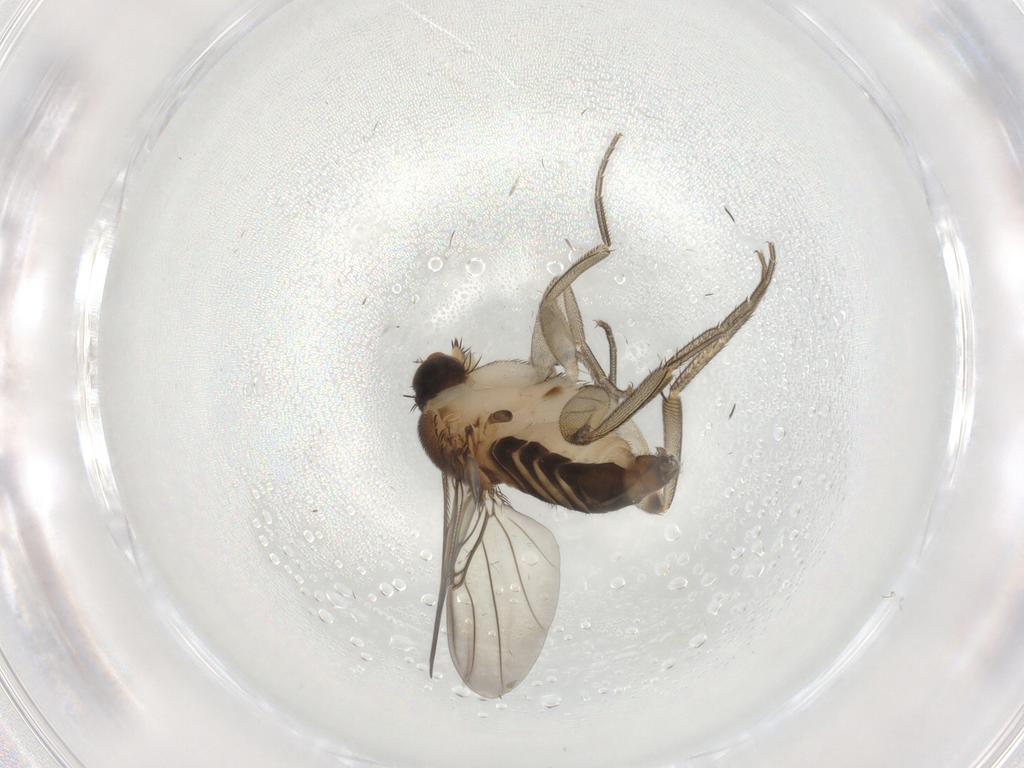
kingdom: Animalia
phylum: Arthropoda
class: Insecta
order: Diptera
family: Phoridae
